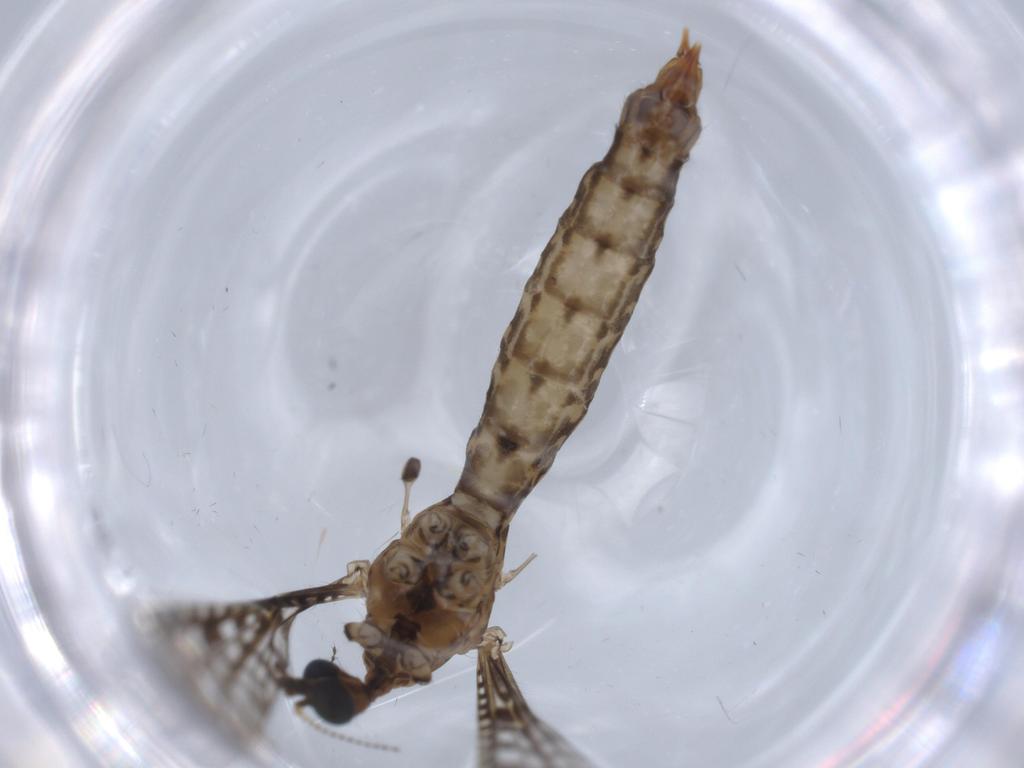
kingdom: Animalia
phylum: Arthropoda
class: Insecta
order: Diptera
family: Limoniidae
